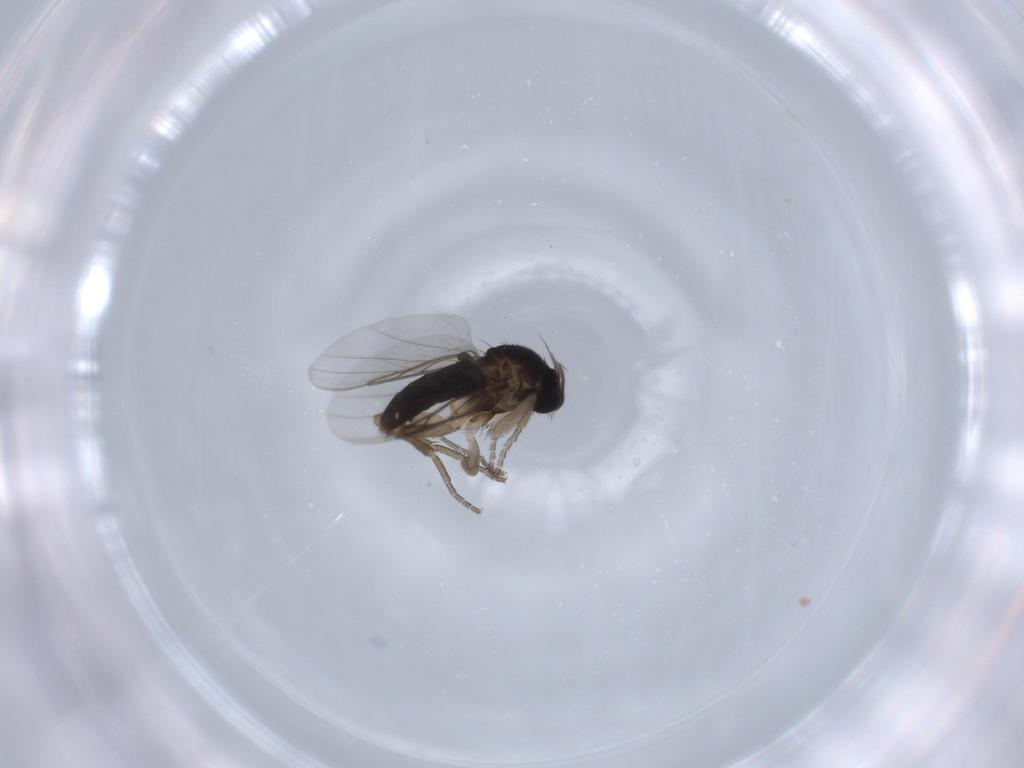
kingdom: Animalia
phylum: Arthropoda
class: Insecta
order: Diptera
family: Phoridae
